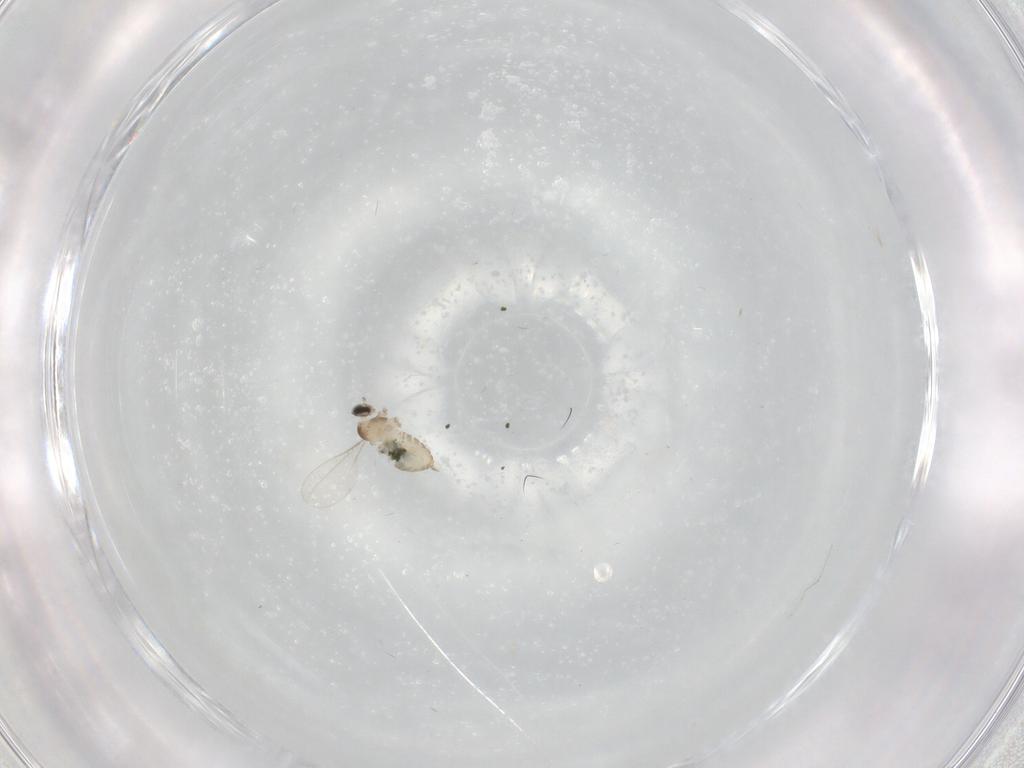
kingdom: Animalia
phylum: Arthropoda
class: Insecta
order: Diptera
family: Cecidomyiidae
